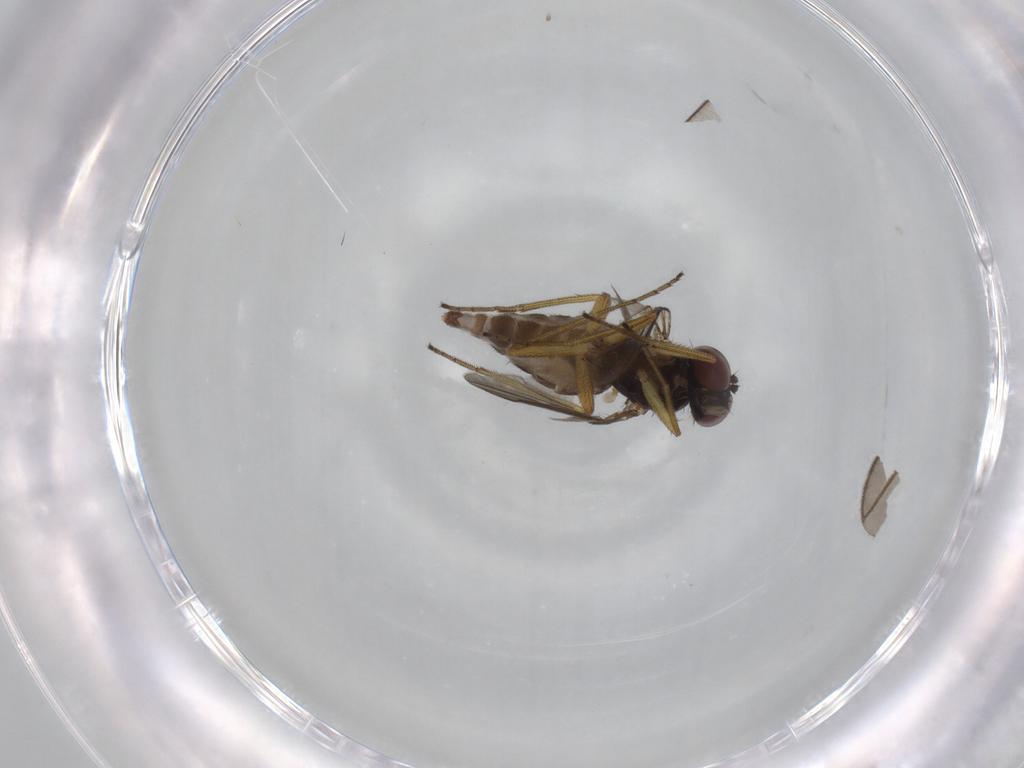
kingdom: Animalia
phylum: Arthropoda
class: Insecta
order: Diptera
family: Dolichopodidae
